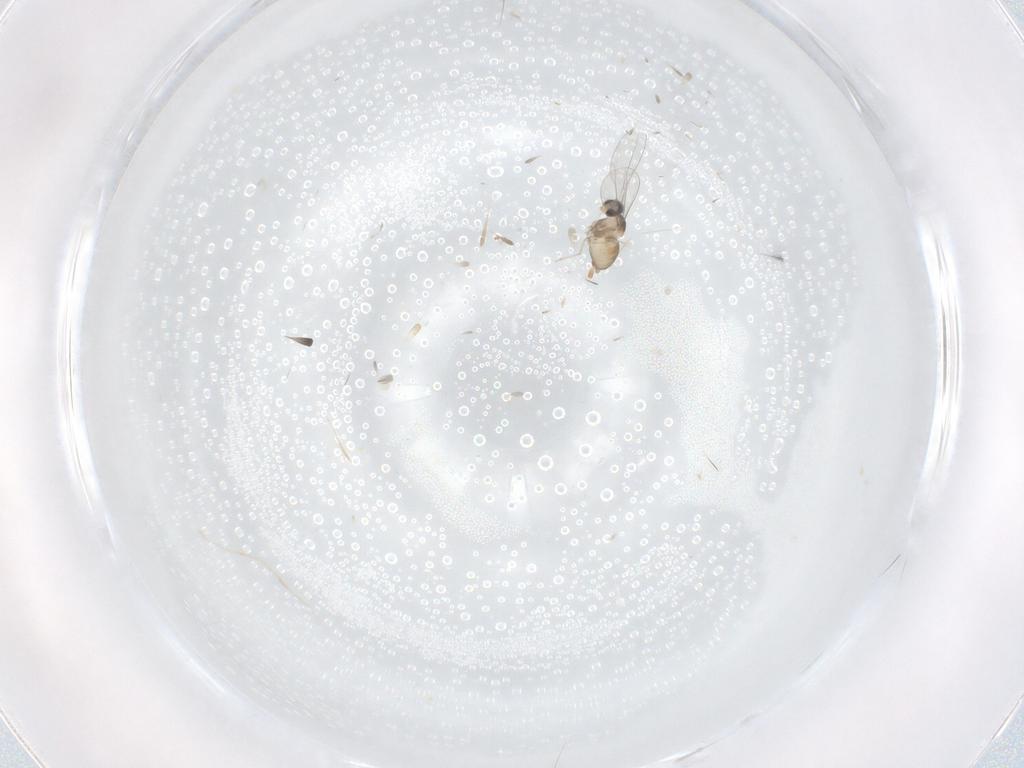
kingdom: Animalia
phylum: Arthropoda
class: Insecta
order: Diptera
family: Cecidomyiidae
